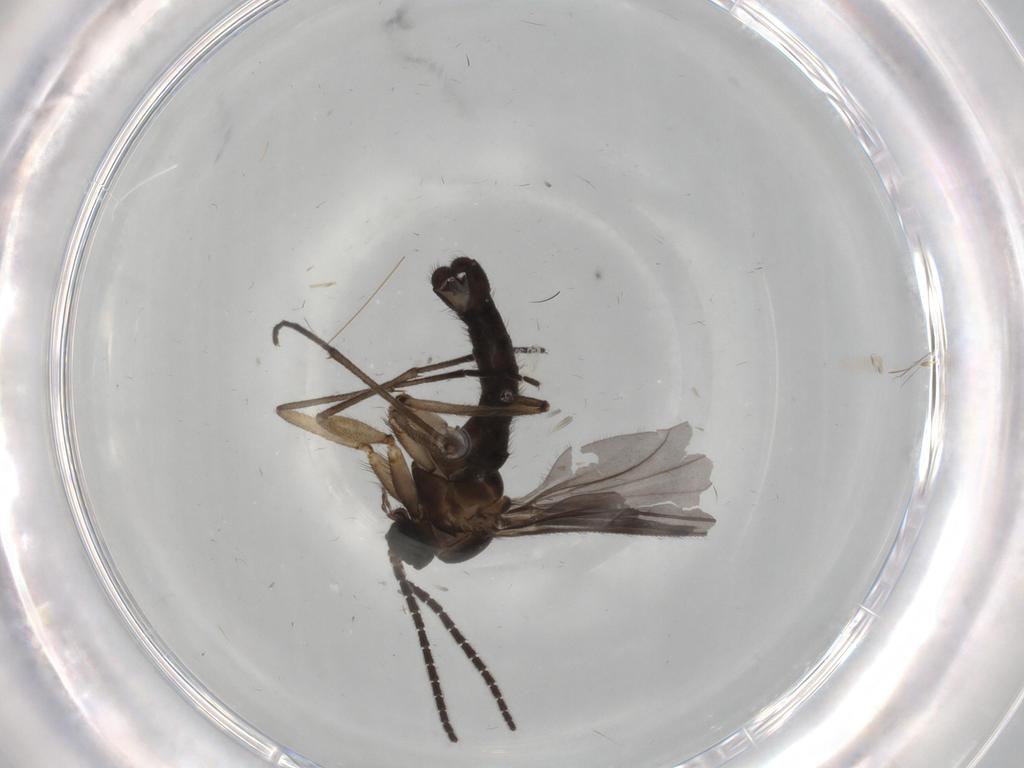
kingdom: Animalia
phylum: Arthropoda
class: Insecta
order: Diptera
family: Sciaridae
